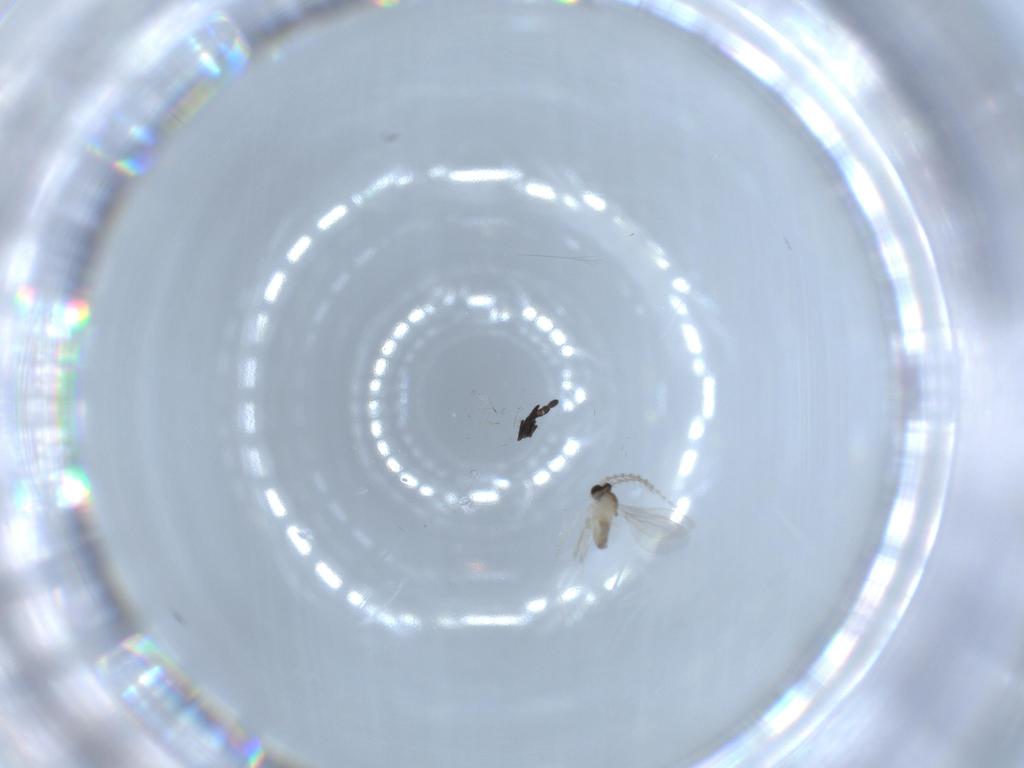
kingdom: Animalia
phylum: Arthropoda
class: Insecta
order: Diptera
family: Cecidomyiidae
